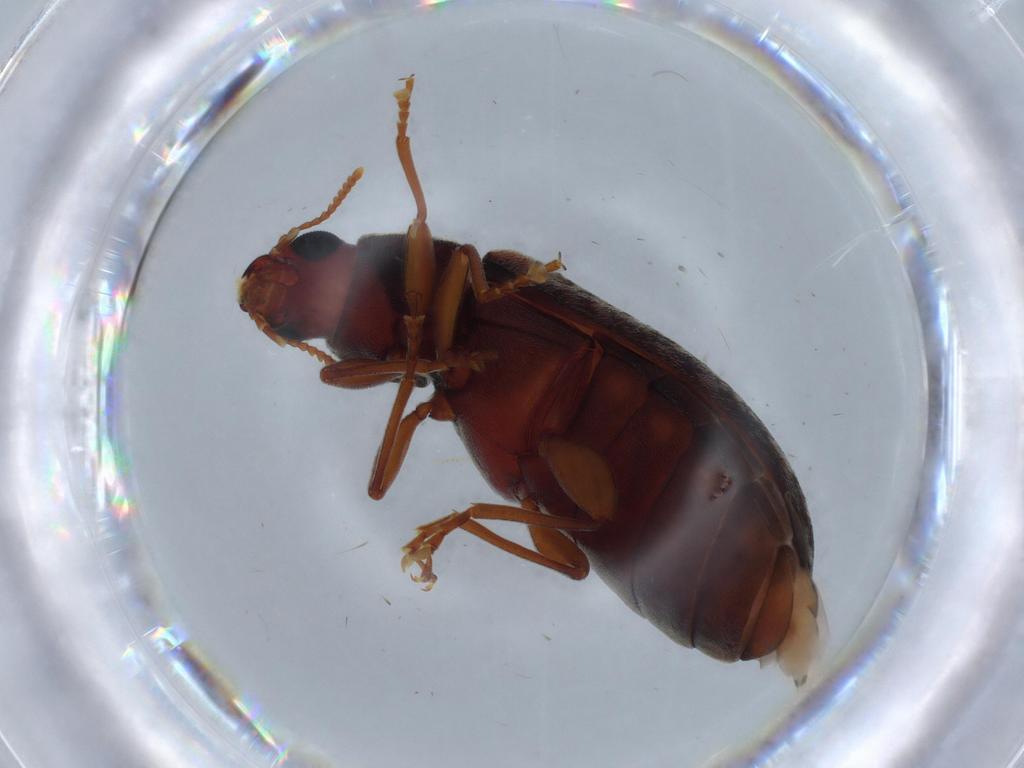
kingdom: Animalia
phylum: Arthropoda
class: Insecta
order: Coleoptera
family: Mycteridae
